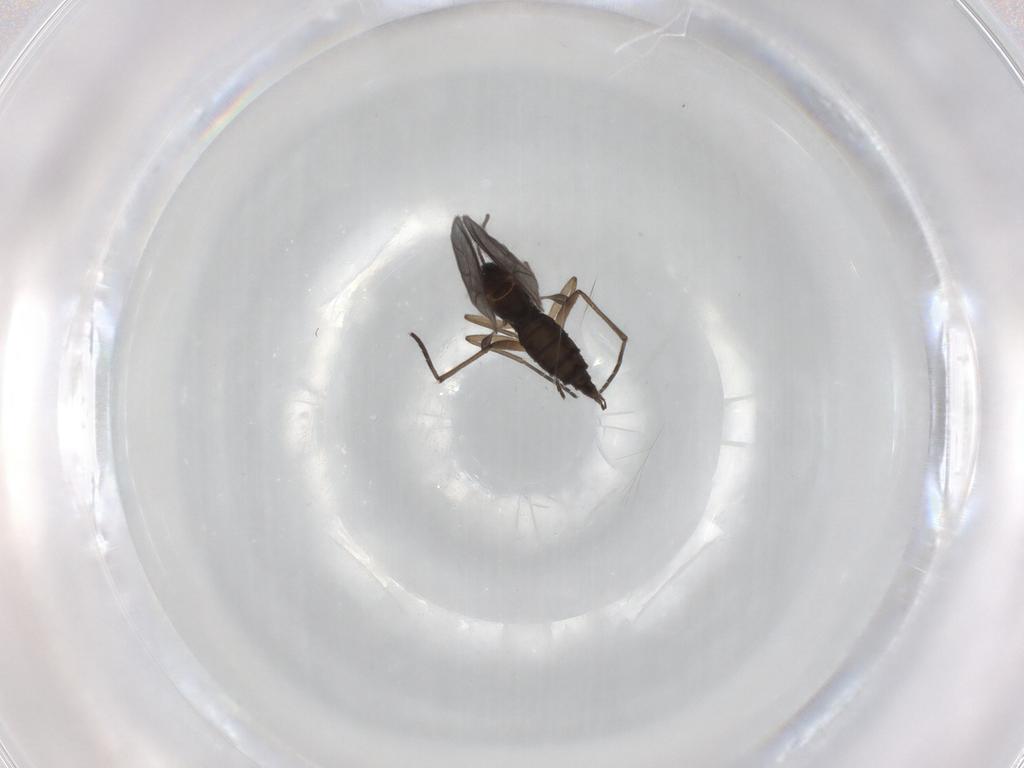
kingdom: Animalia
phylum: Arthropoda
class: Insecta
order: Diptera
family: Sciaridae
